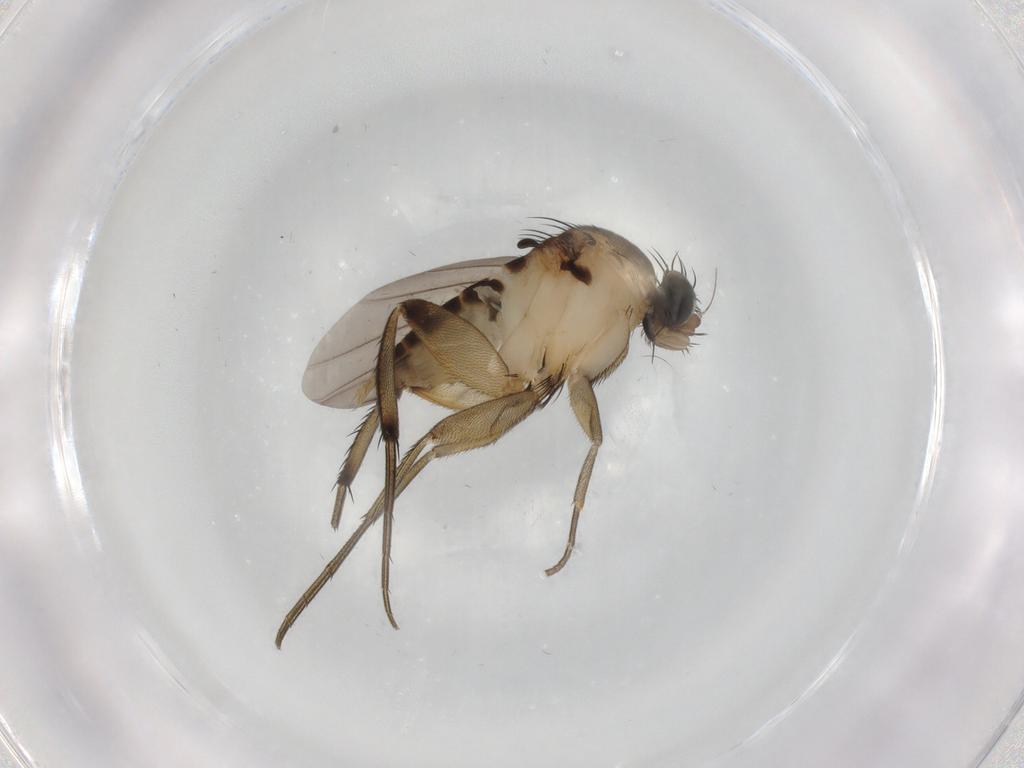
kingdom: Animalia
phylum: Arthropoda
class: Insecta
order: Diptera
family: Phoridae
